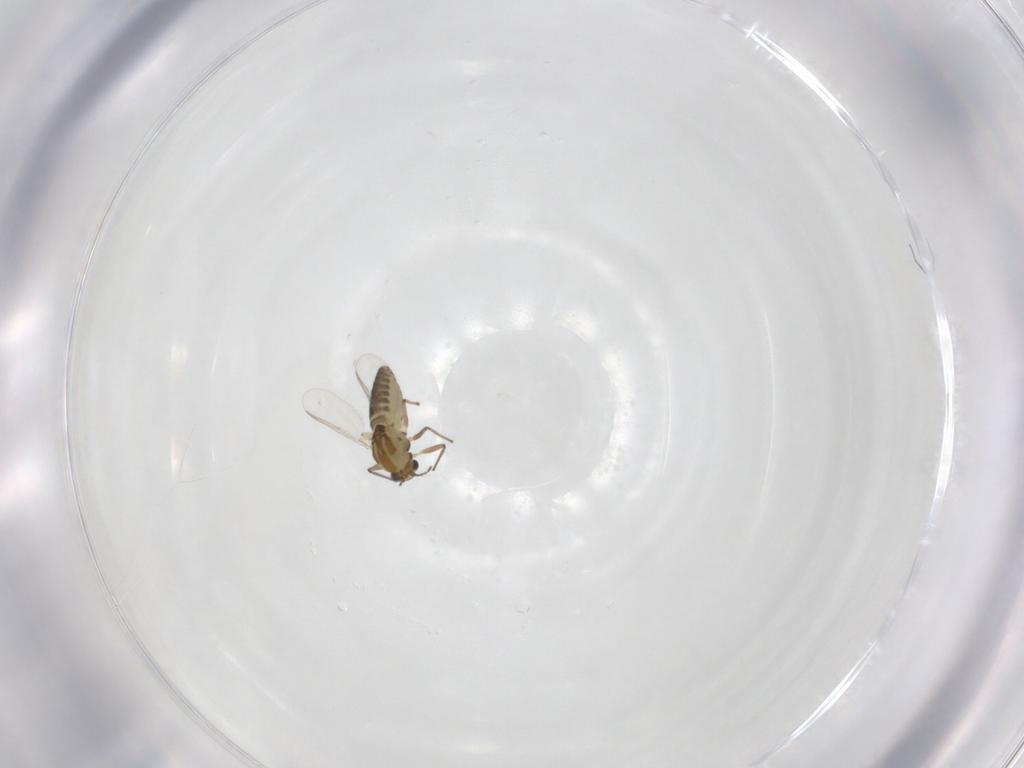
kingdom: Animalia
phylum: Arthropoda
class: Insecta
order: Diptera
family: Chironomidae
